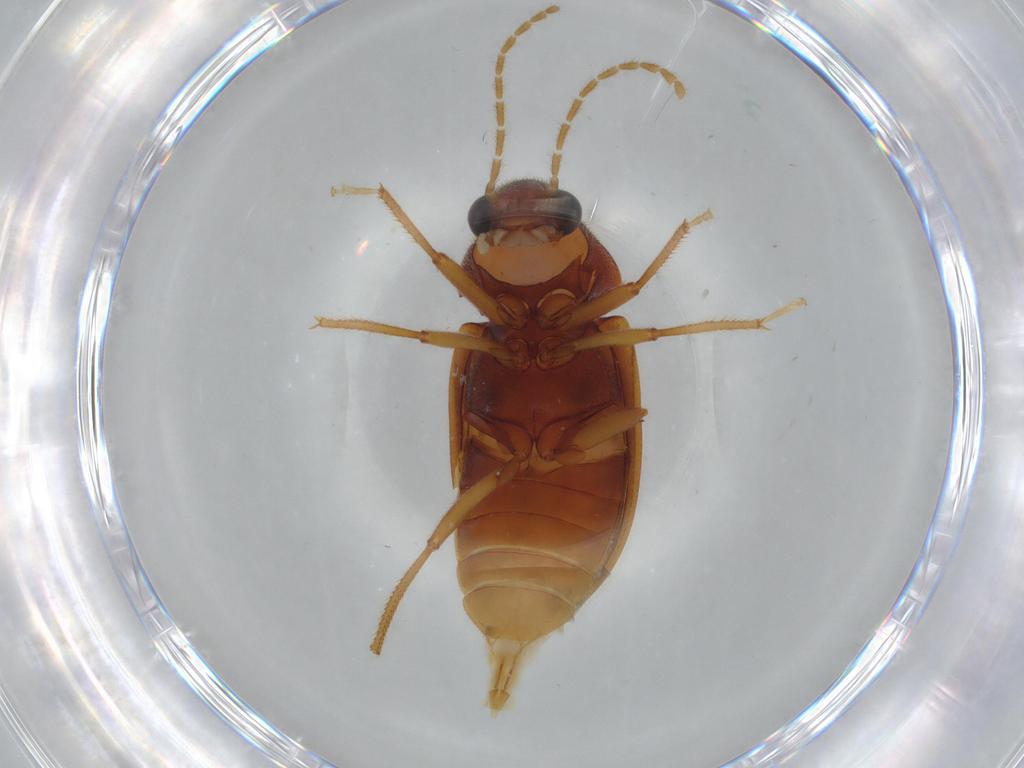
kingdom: Animalia
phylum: Arthropoda
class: Insecta
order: Coleoptera
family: Ptilodactylidae
